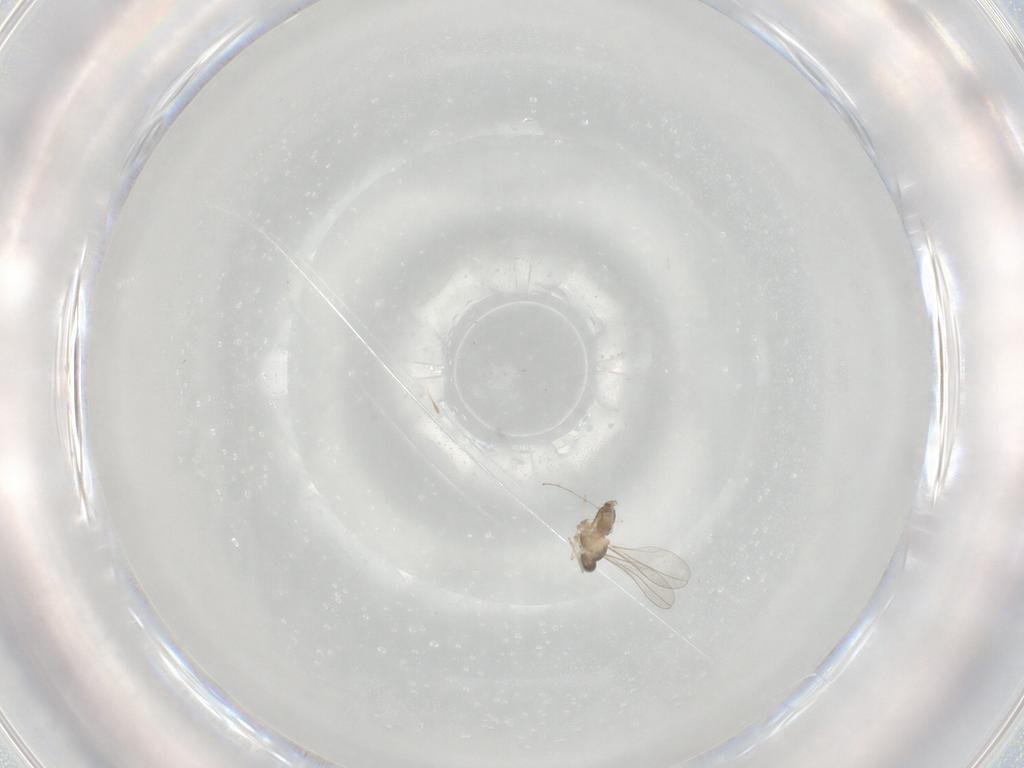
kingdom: Animalia
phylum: Arthropoda
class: Insecta
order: Diptera
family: Cecidomyiidae
